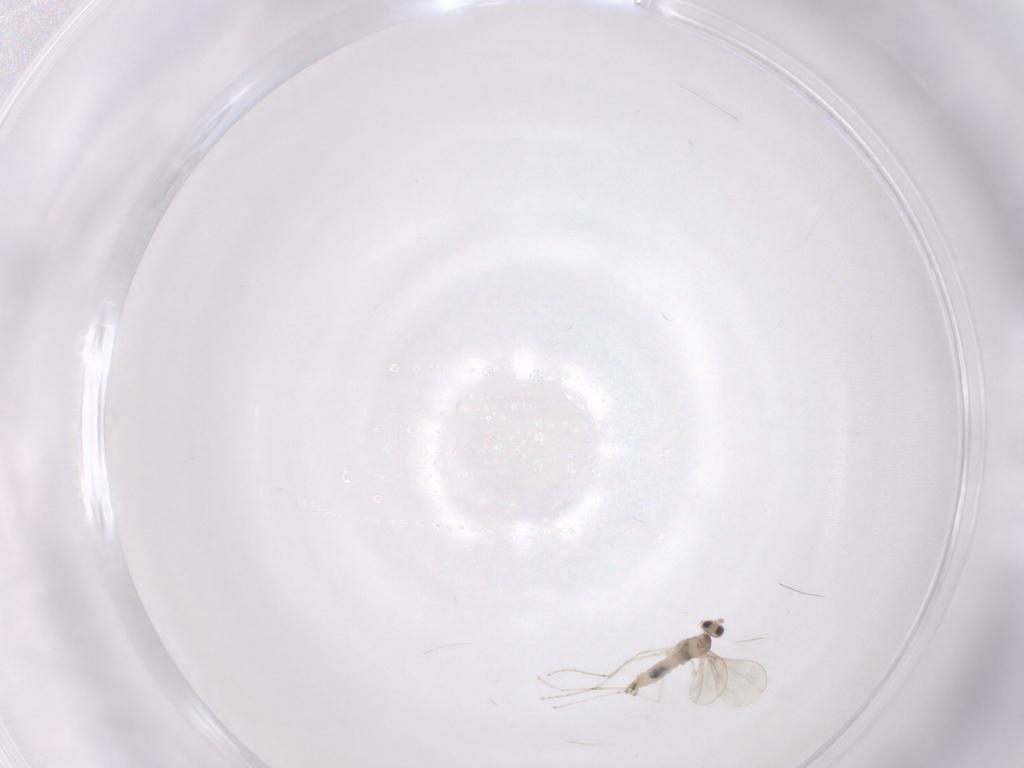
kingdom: Animalia
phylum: Arthropoda
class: Insecta
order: Diptera
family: Cecidomyiidae
